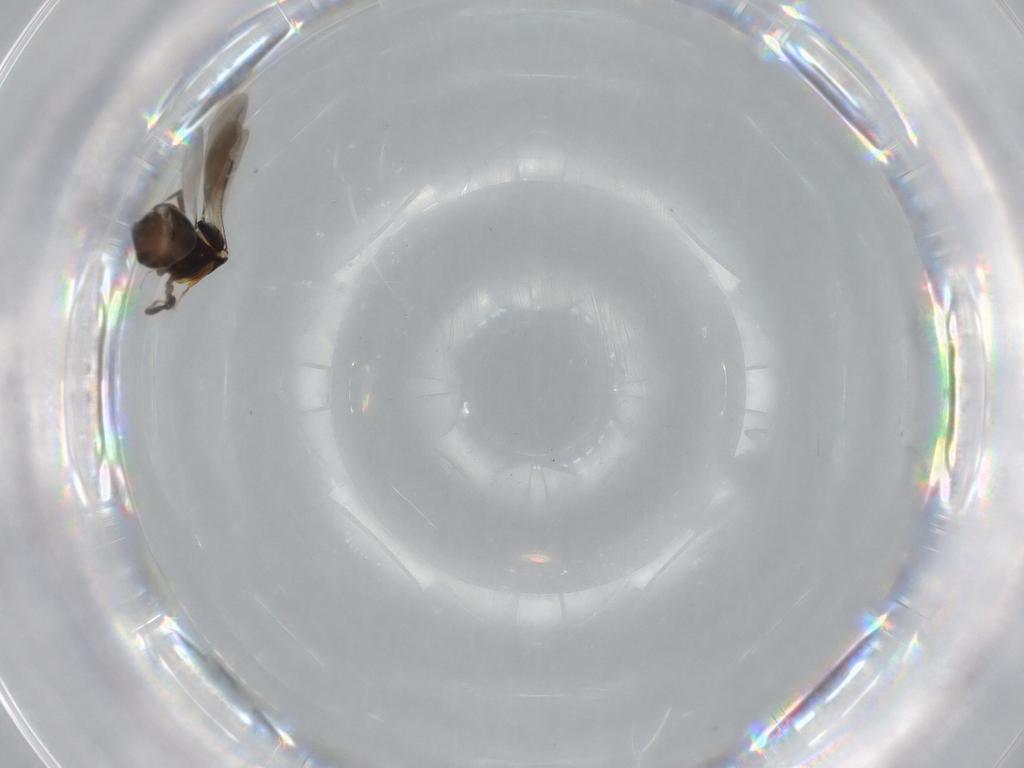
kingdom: Animalia
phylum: Arthropoda
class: Insecta
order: Hymenoptera
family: Ceraphronidae
